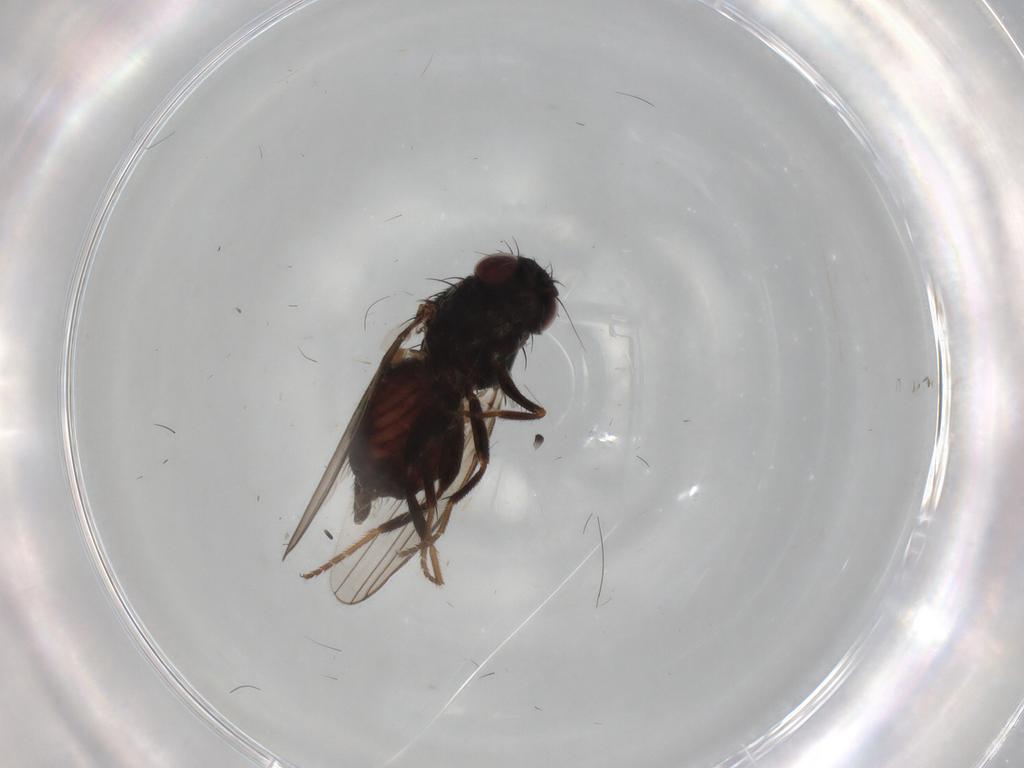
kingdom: Animalia
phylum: Arthropoda
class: Insecta
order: Diptera
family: Milichiidae
